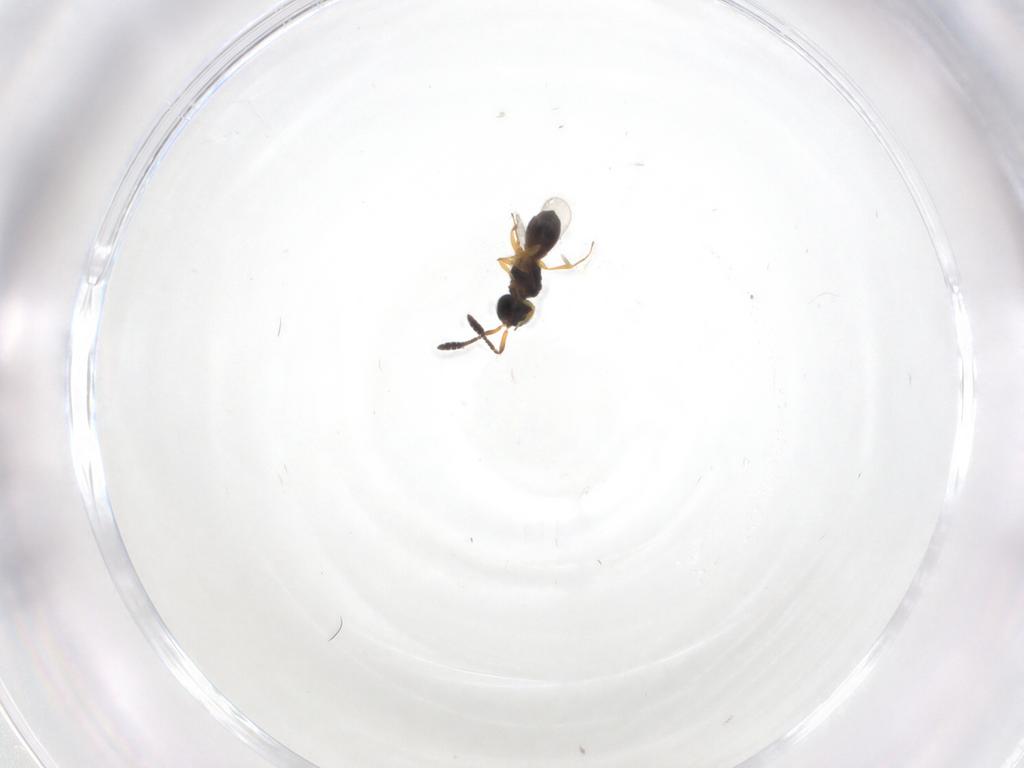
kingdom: Animalia
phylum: Arthropoda
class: Insecta
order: Hymenoptera
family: Scelionidae
